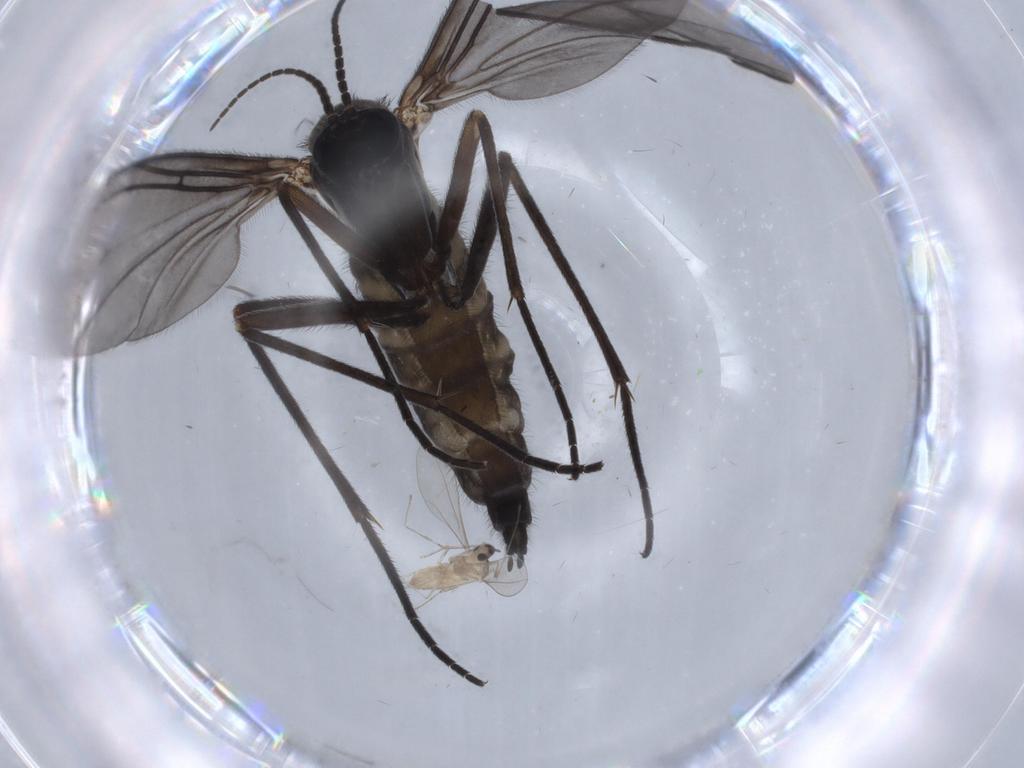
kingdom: Animalia
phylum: Arthropoda
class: Insecta
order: Diptera
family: Sciaridae
